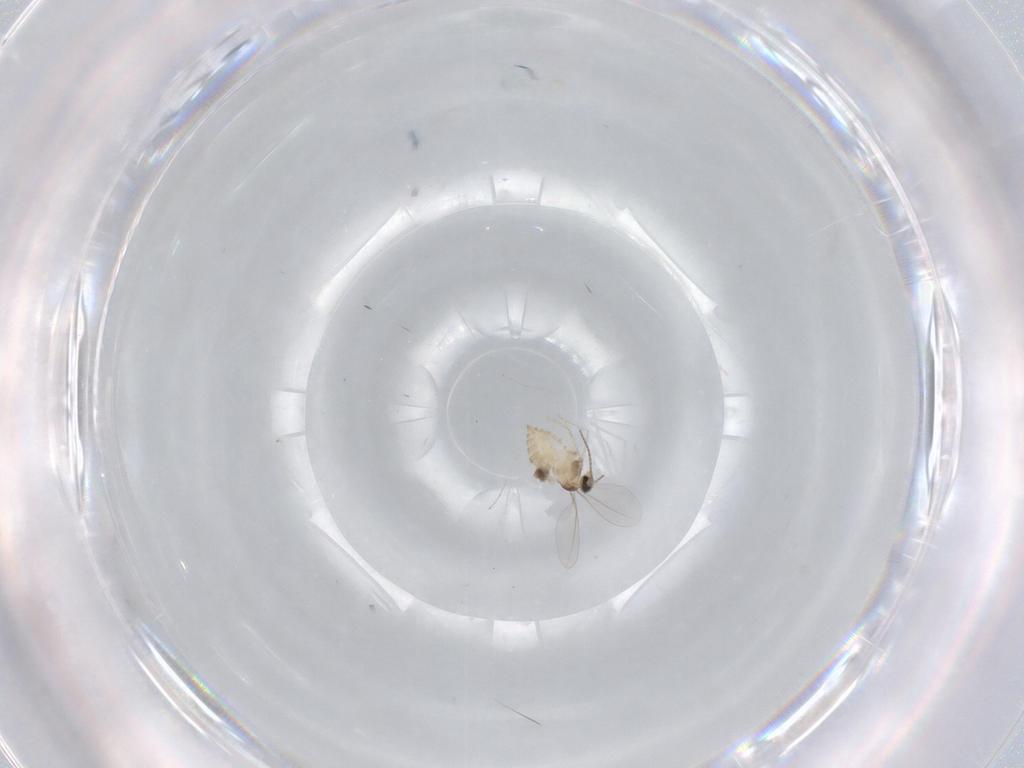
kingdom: Animalia
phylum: Arthropoda
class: Insecta
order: Diptera
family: Cecidomyiidae
